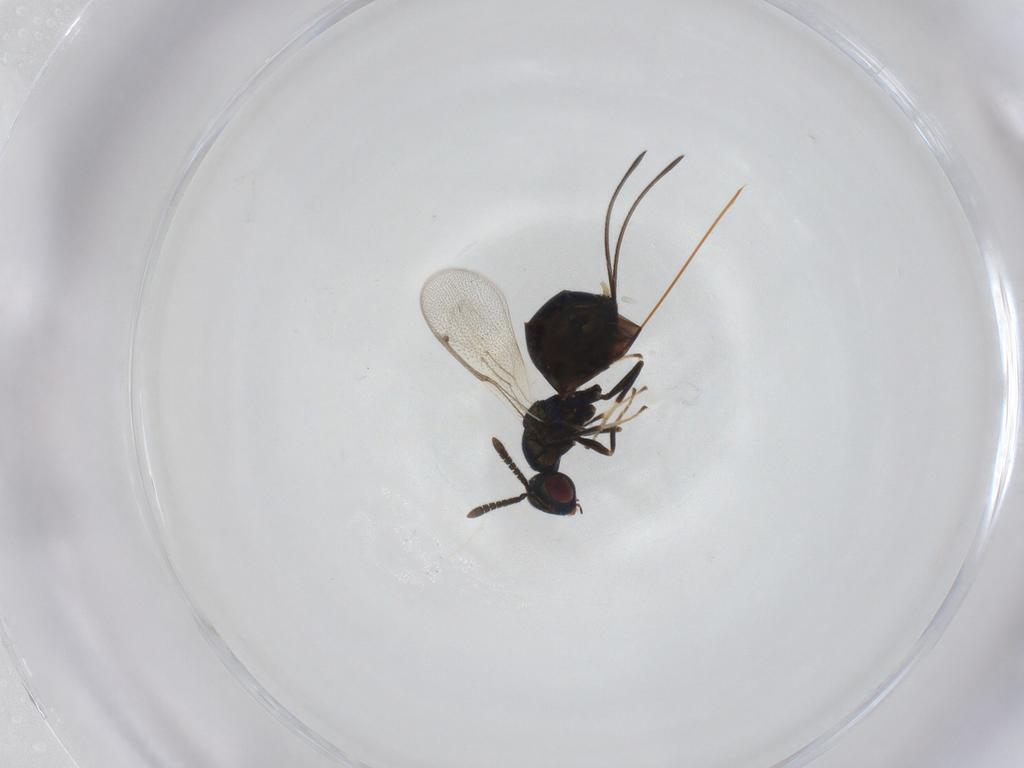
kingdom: Animalia
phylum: Arthropoda
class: Insecta
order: Hymenoptera
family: Torymidae
